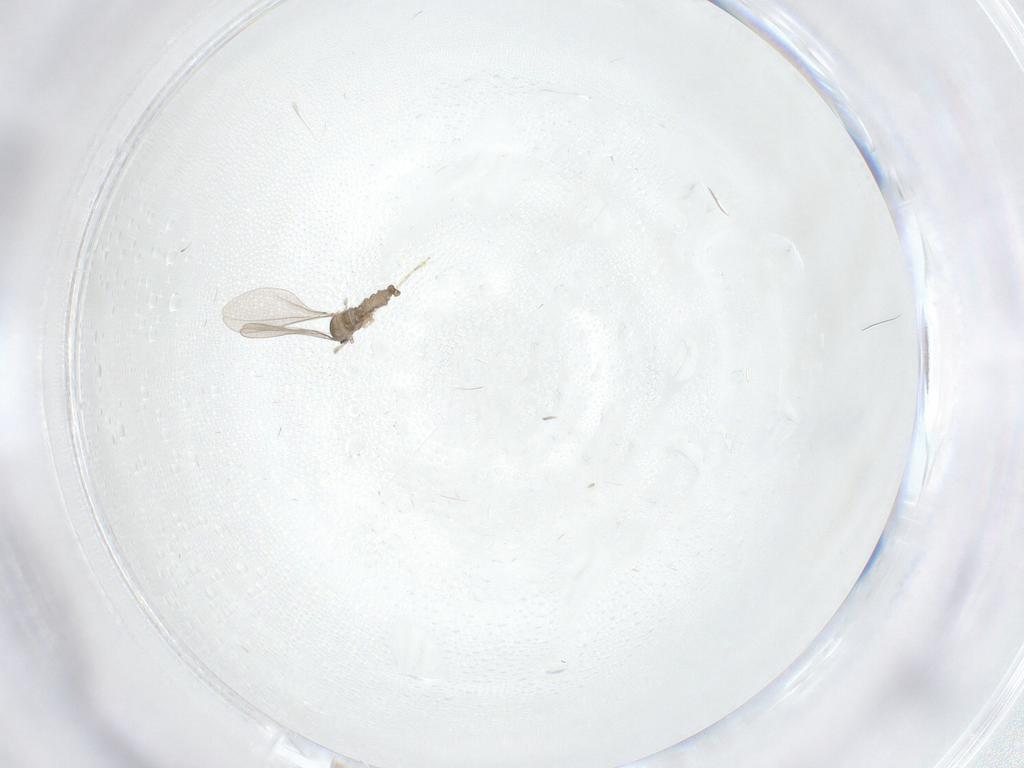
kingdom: Animalia
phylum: Arthropoda
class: Insecta
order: Diptera
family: Cecidomyiidae
